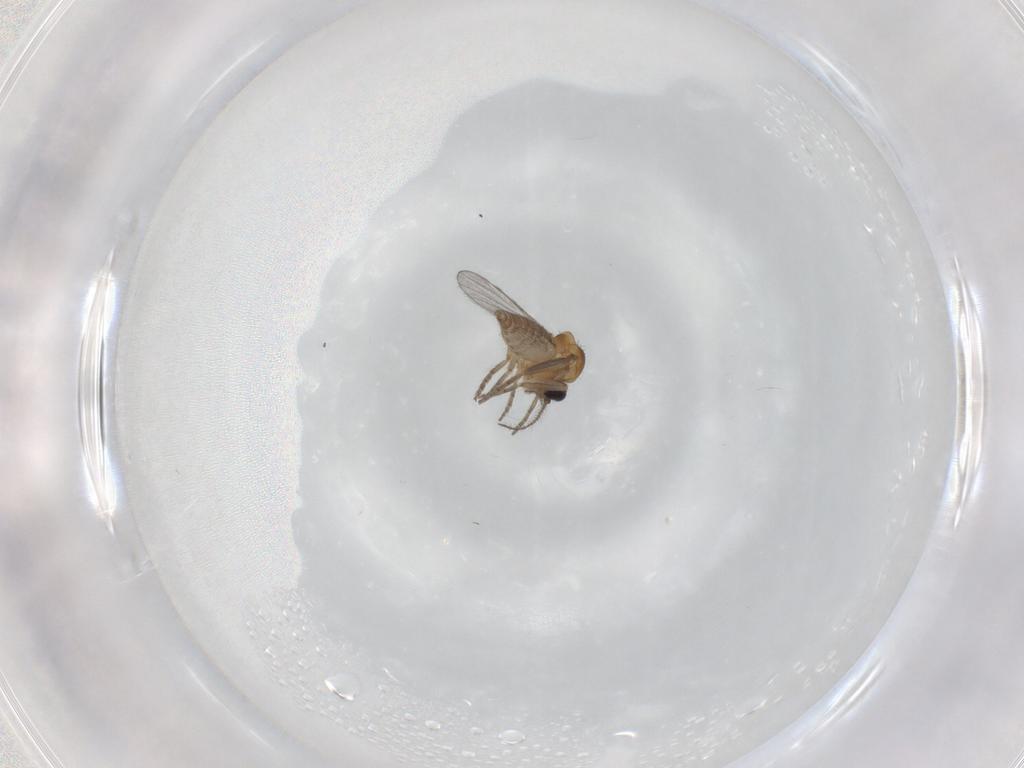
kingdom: Animalia
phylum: Arthropoda
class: Insecta
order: Diptera
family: Ceratopogonidae
